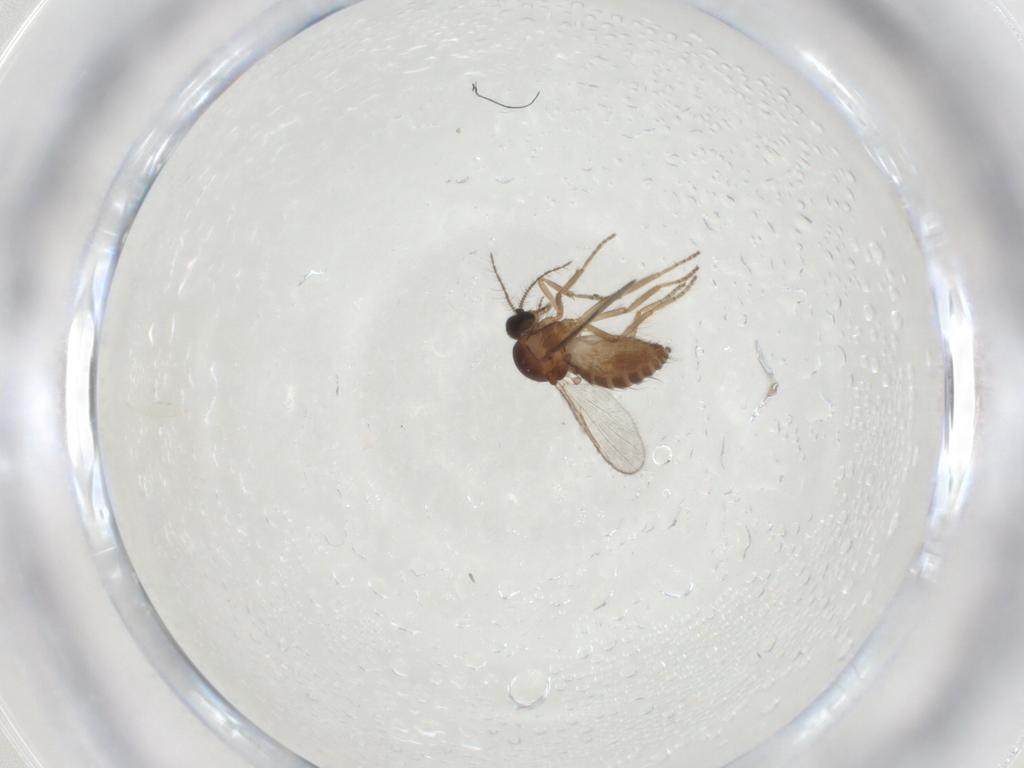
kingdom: Animalia
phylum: Arthropoda
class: Insecta
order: Diptera
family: Ceratopogonidae
